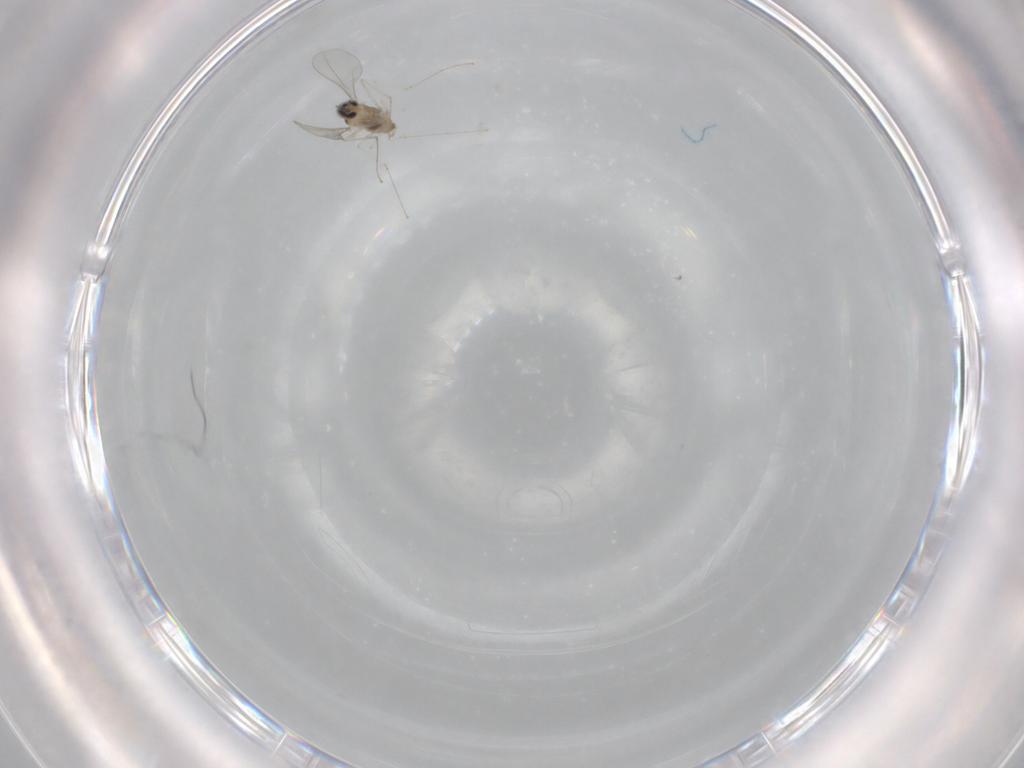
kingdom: Animalia
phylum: Arthropoda
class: Insecta
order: Diptera
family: Cecidomyiidae
